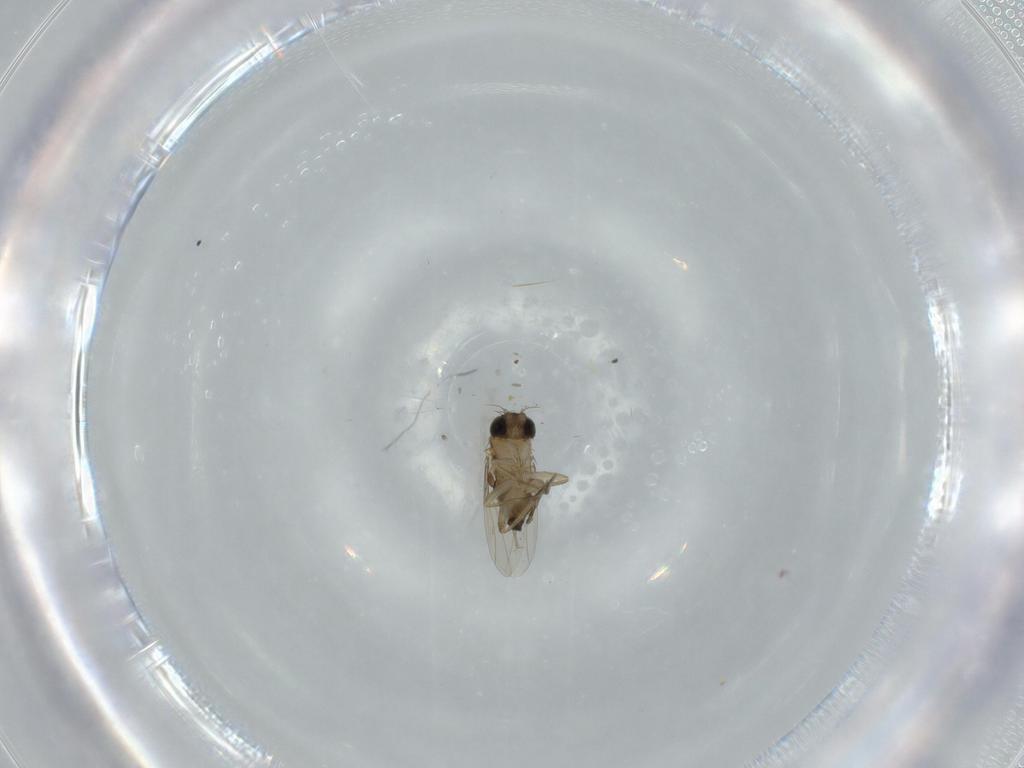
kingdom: Animalia
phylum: Arthropoda
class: Insecta
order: Diptera
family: Phoridae
